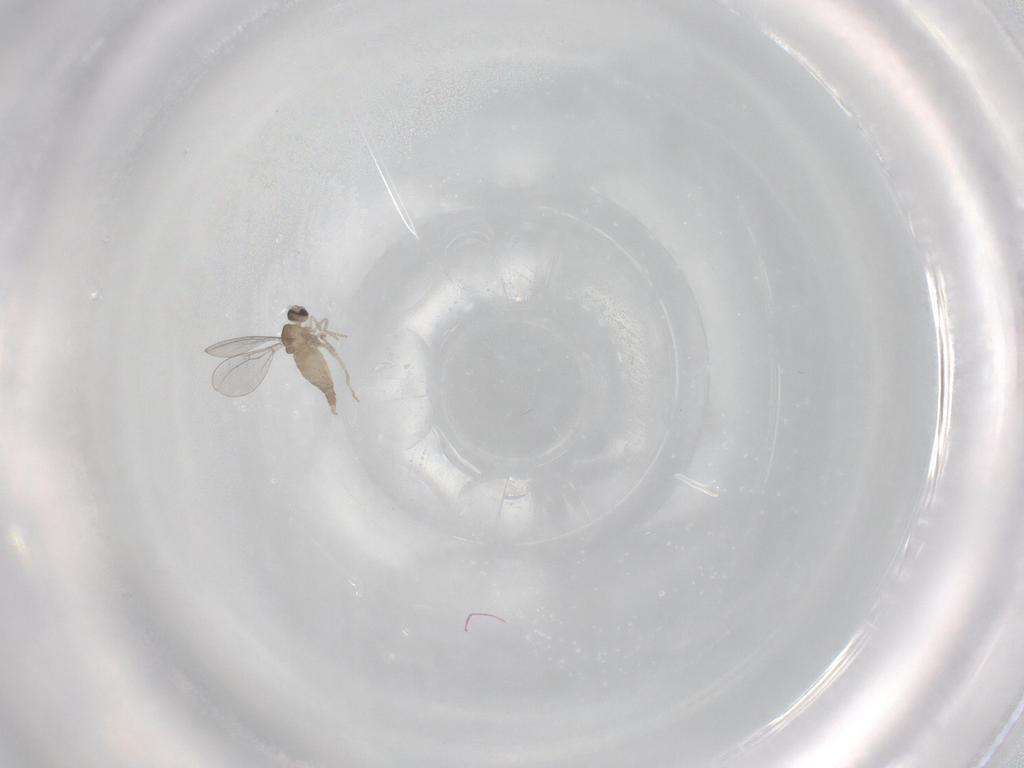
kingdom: Animalia
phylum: Arthropoda
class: Insecta
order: Diptera
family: Cecidomyiidae
